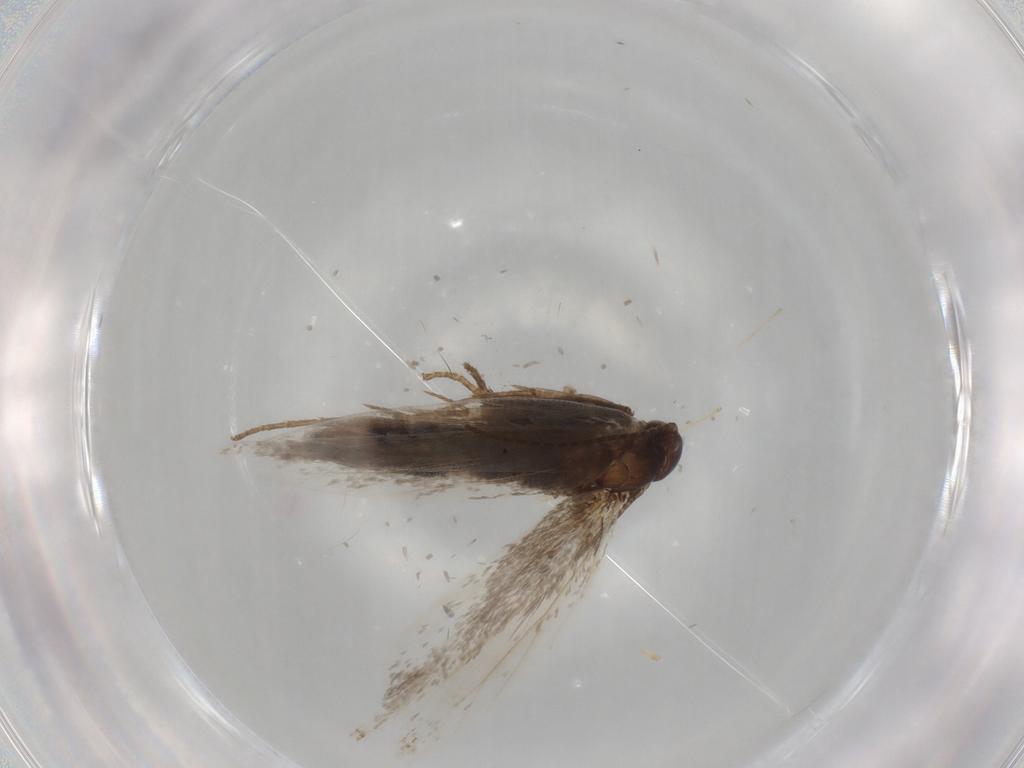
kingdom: Animalia
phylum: Arthropoda
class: Insecta
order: Lepidoptera
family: Gelechiidae
